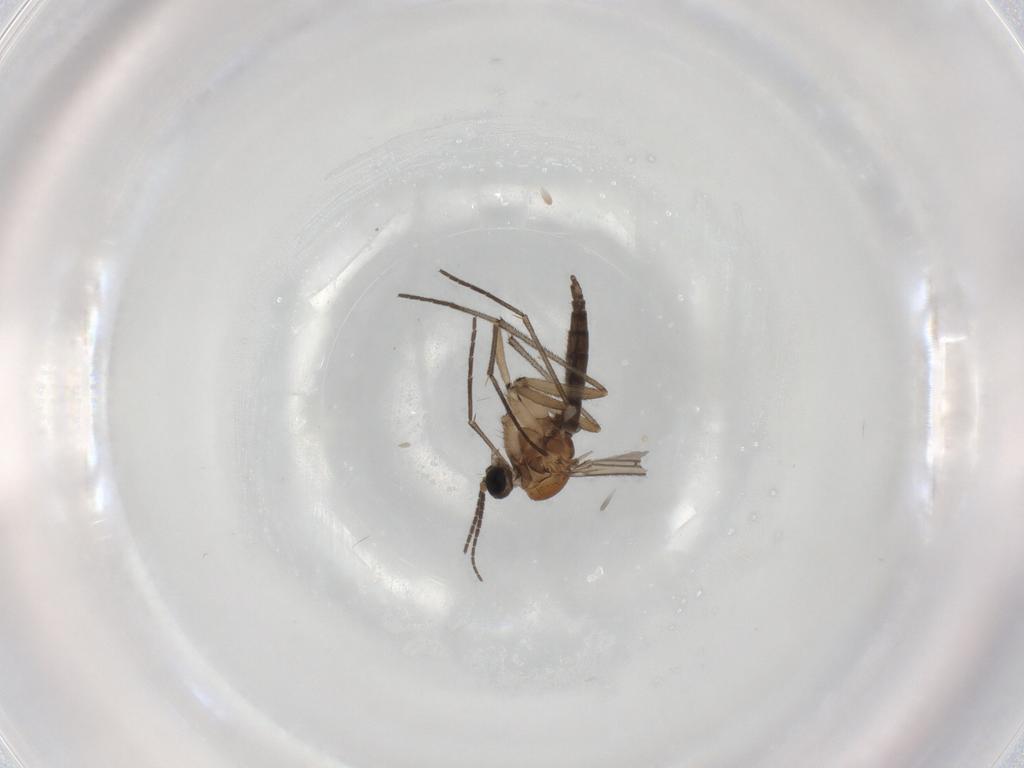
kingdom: Animalia
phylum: Arthropoda
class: Insecta
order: Diptera
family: Sciaridae
